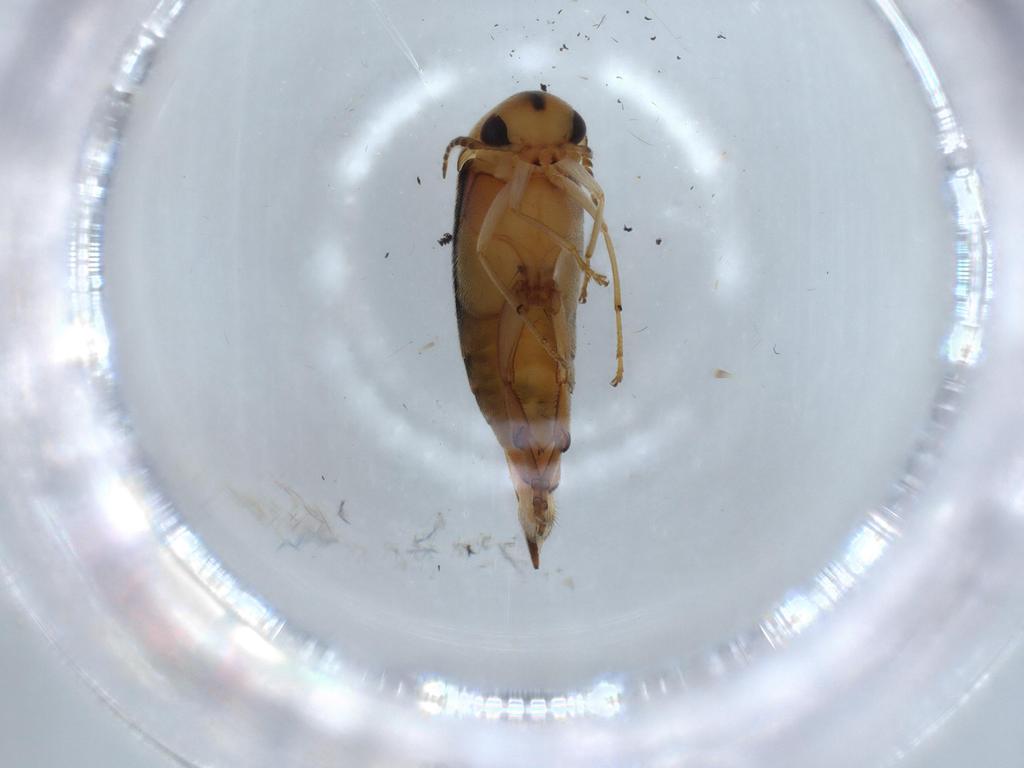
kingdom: Animalia
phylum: Arthropoda
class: Insecta
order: Coleoptera
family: Mordellidae
